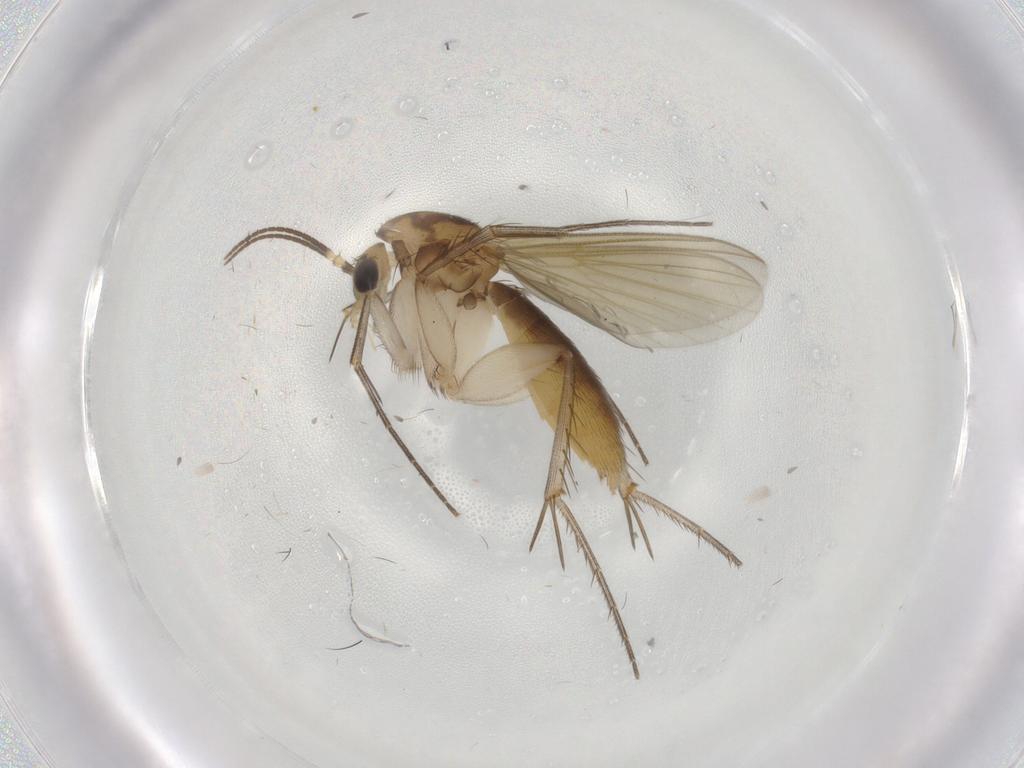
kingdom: Animalia
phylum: Arthropoda
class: Insecta
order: Diptera
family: Mycetophilidae
